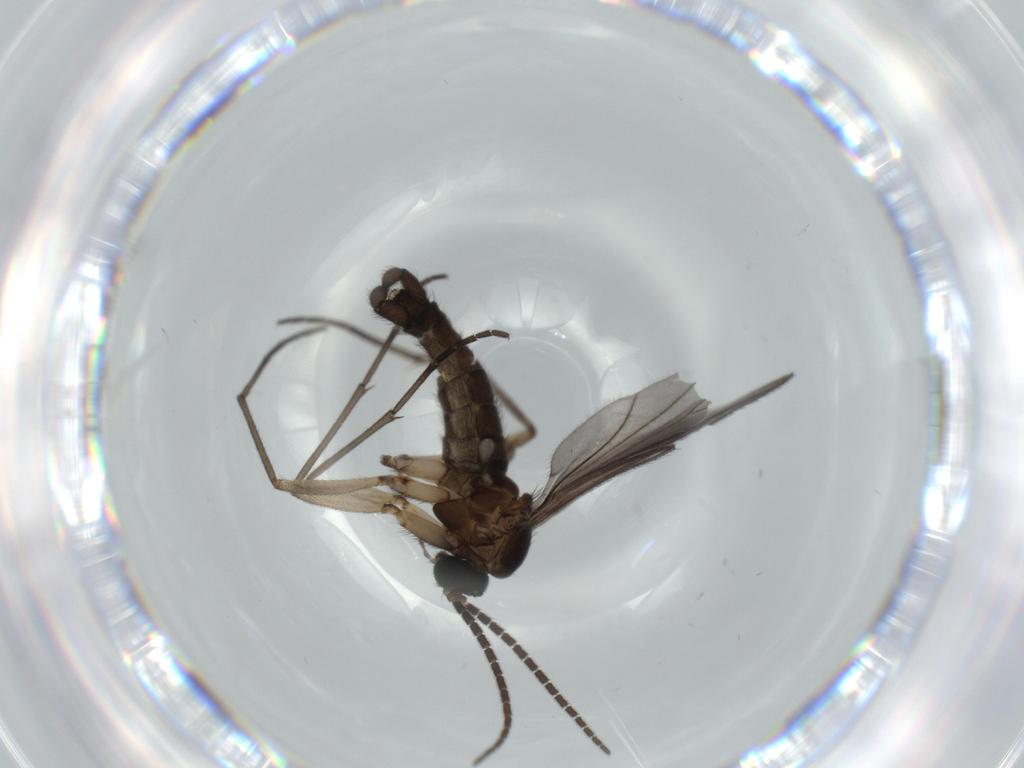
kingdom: Animalia
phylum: Arthropoda
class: Insecta
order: Diptera
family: Sciaridae
